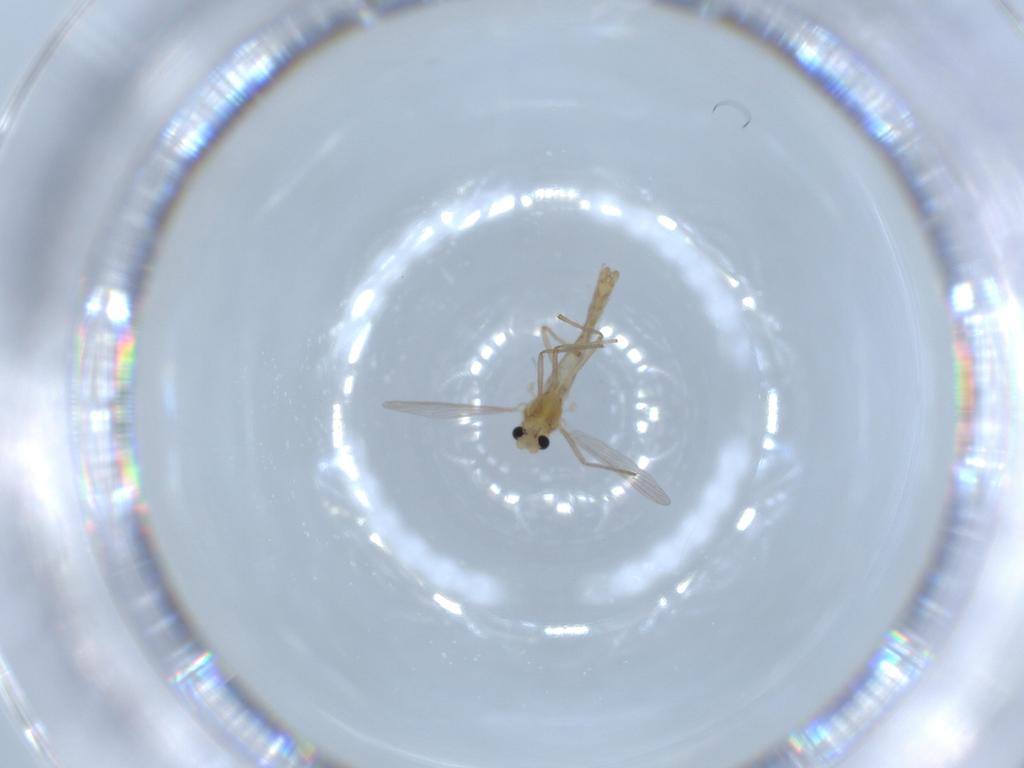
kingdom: Animalia
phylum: Arthropoda
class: Insecta
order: Diptera
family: Chironomidae
